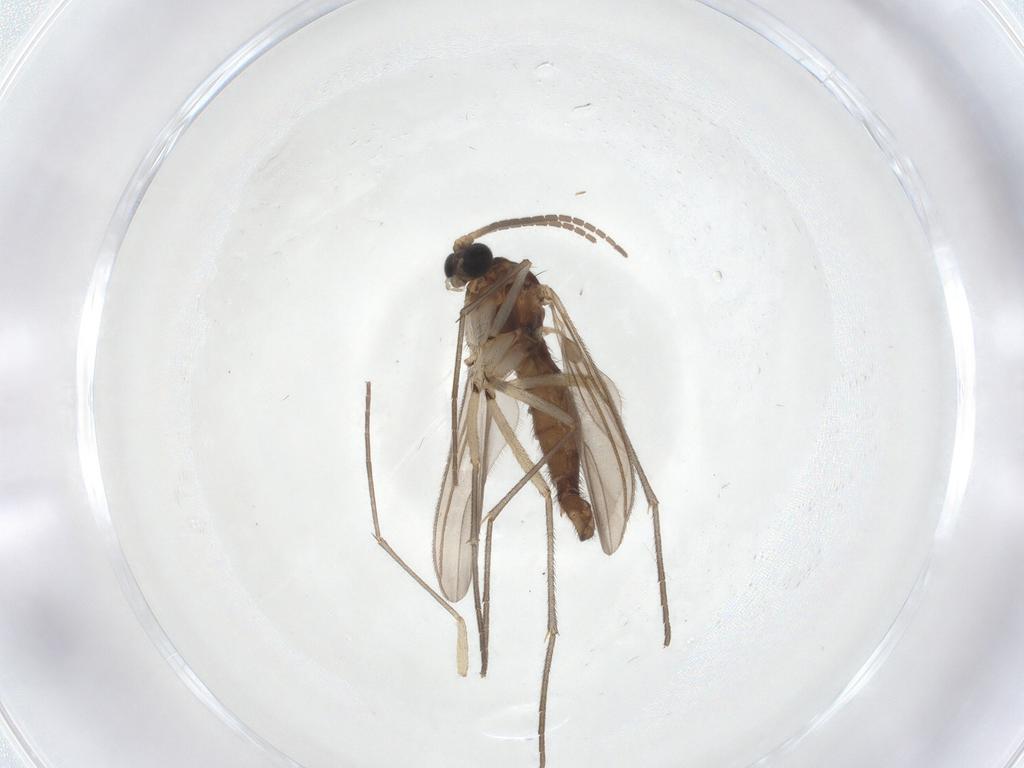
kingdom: Animalia
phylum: Arthropoda
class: Insecta
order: Diptera
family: Sciaridae
